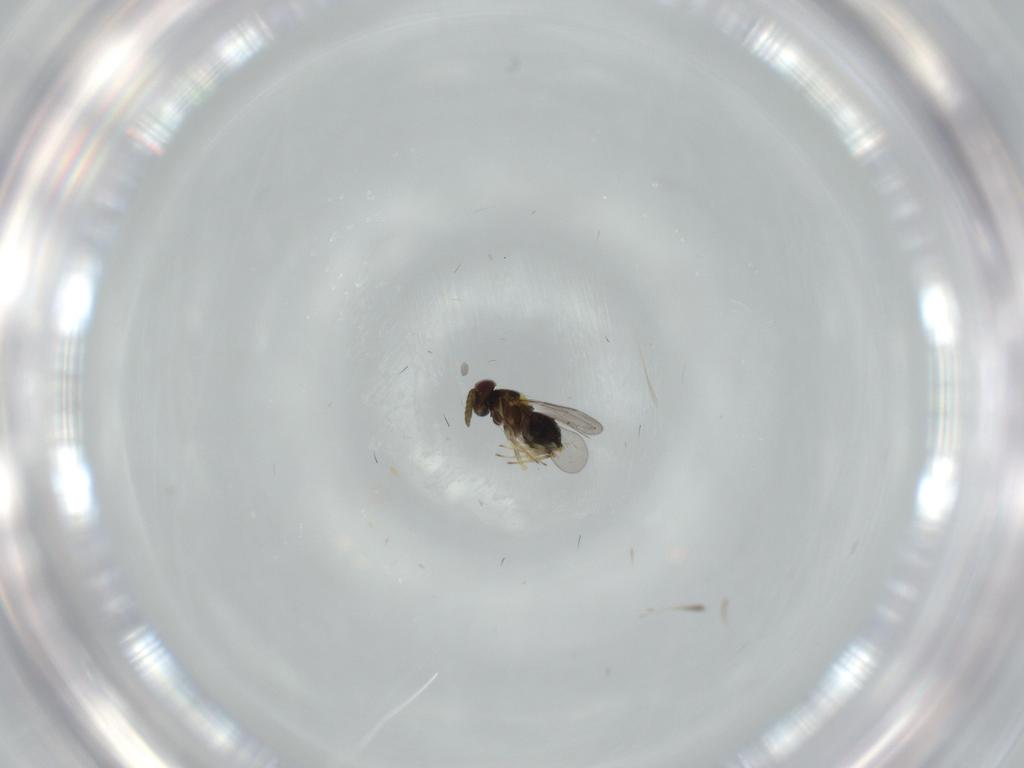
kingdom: Animalia
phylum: Arthropoda
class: Insecta
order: Hymenoptera
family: Aphelinidae
